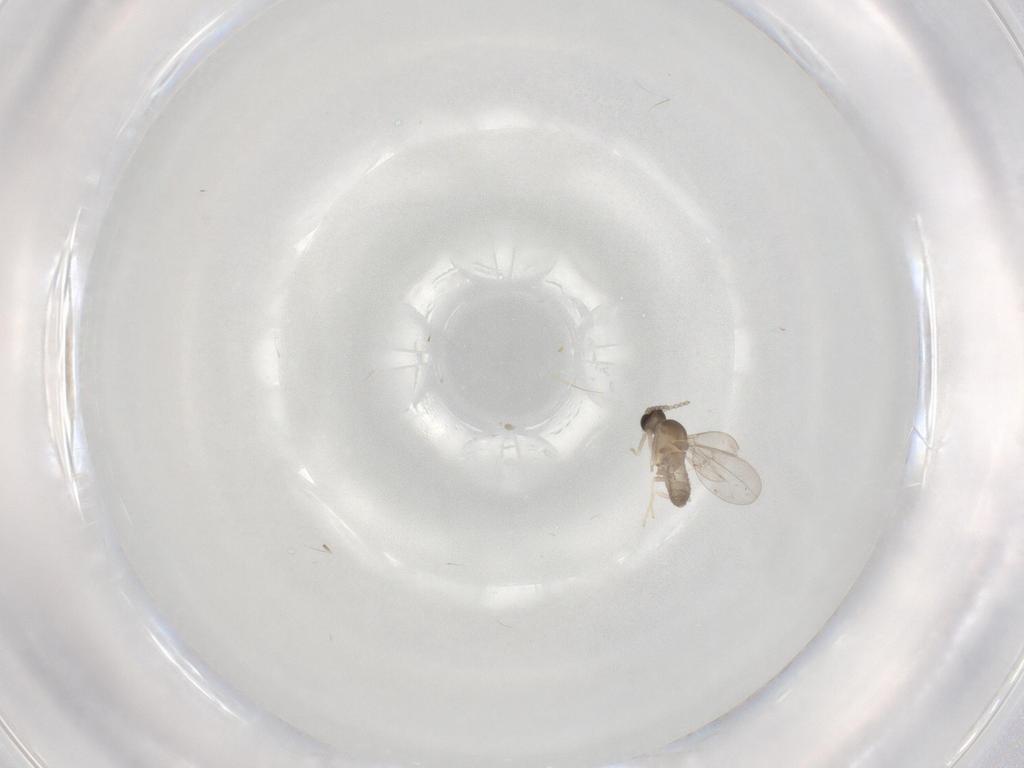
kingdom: Animalia
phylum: Arthropoda
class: Insecta
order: Diptera
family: Cecidomyiidae
